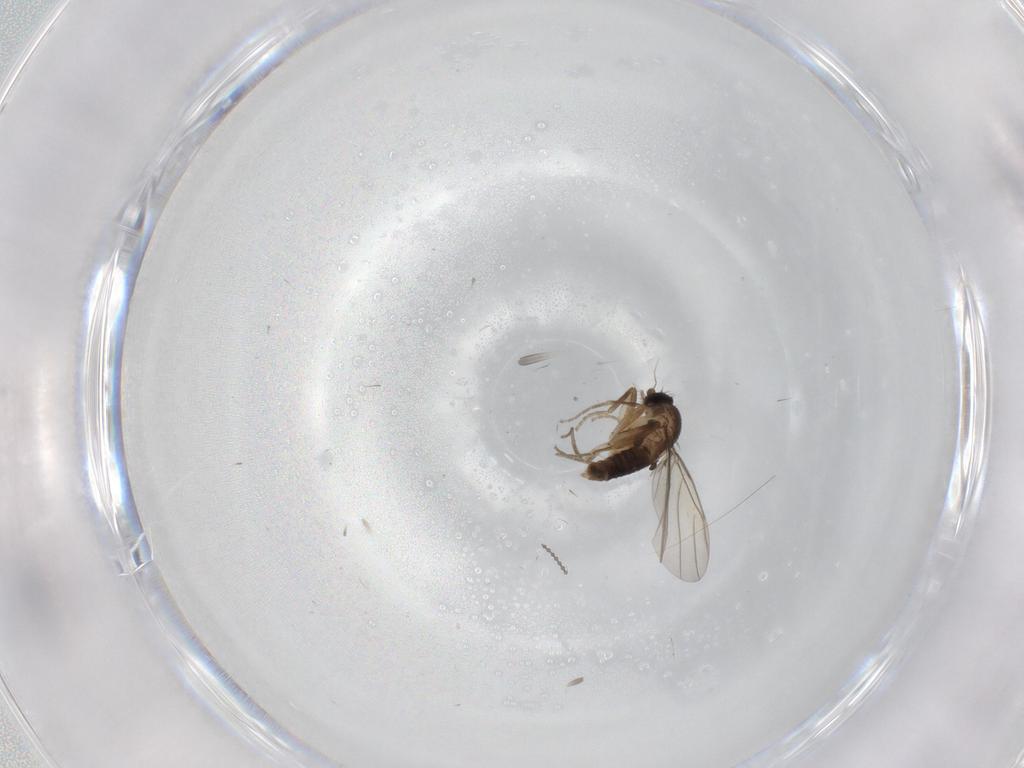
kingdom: Animalia
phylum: Arthropoda
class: Insecta
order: Diptera
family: Phoridae
